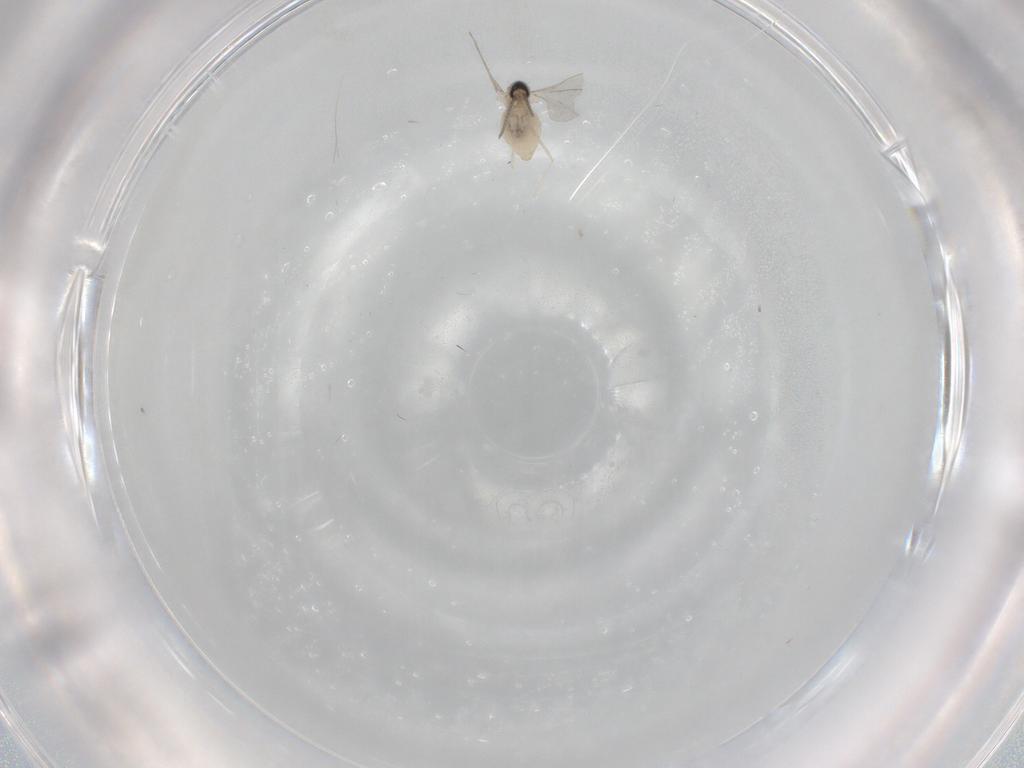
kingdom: Animalia
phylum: Arthropoda
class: Insecta
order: Diptera
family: Cecidomyiidae
